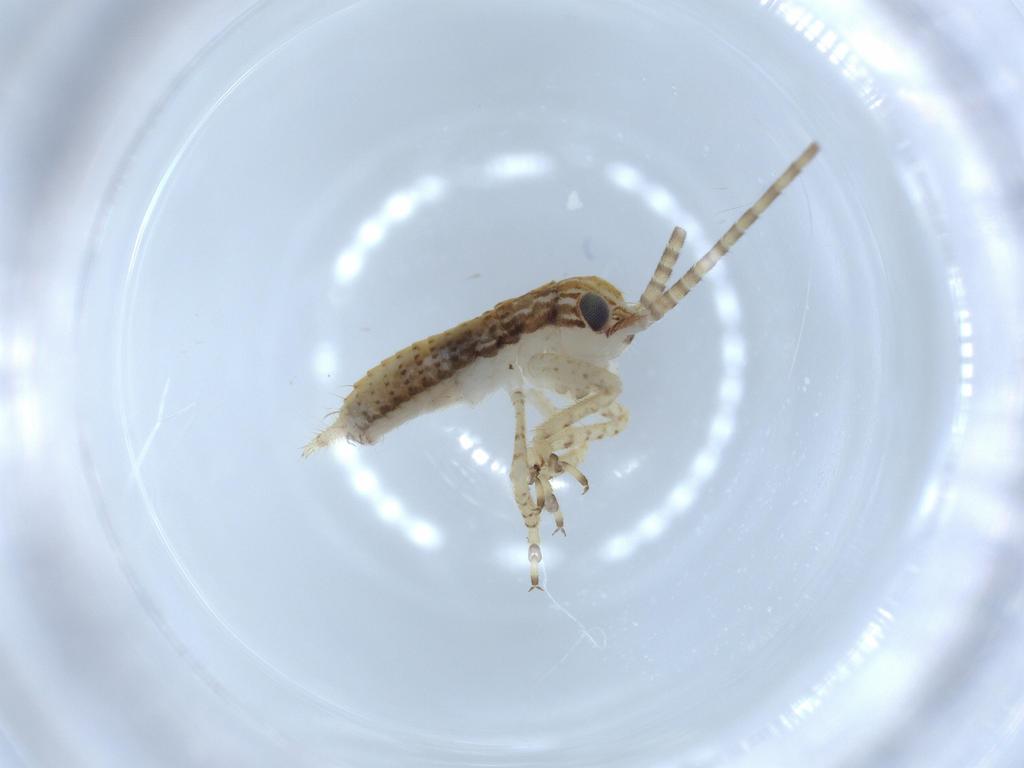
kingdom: Animalia
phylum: Arthropoda
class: Insecta
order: Orthoptera
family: Gryllidae
